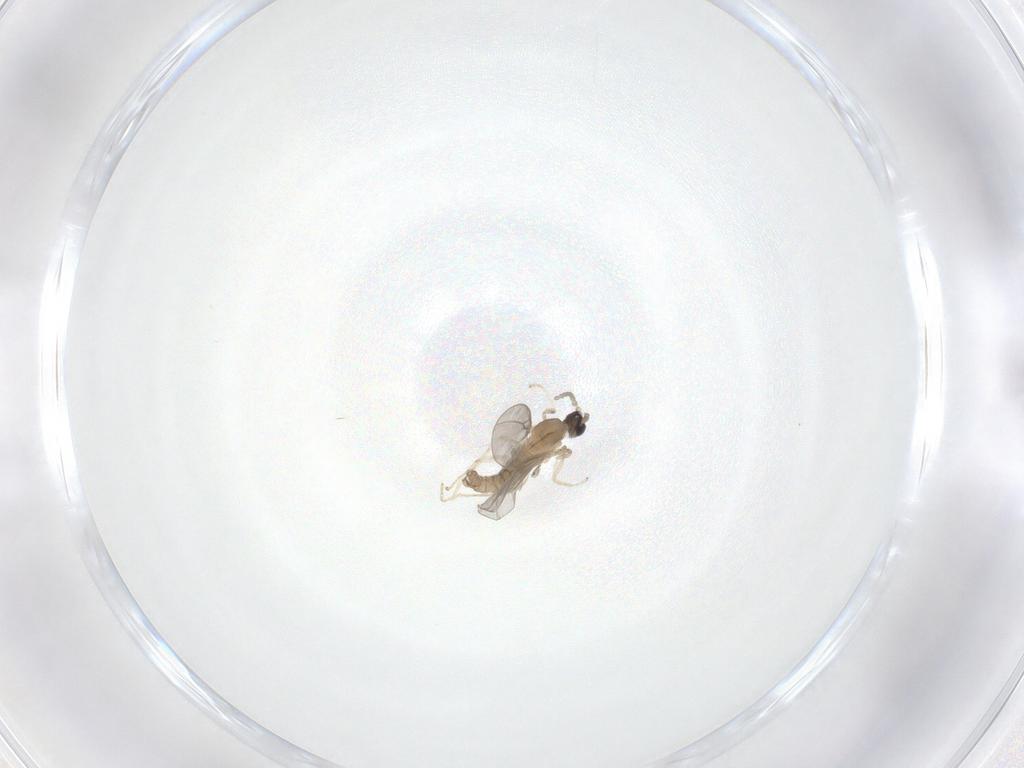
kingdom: Animalia
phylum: Arthropoda
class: Insecta
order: Diptera
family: Cecidomyiidae
